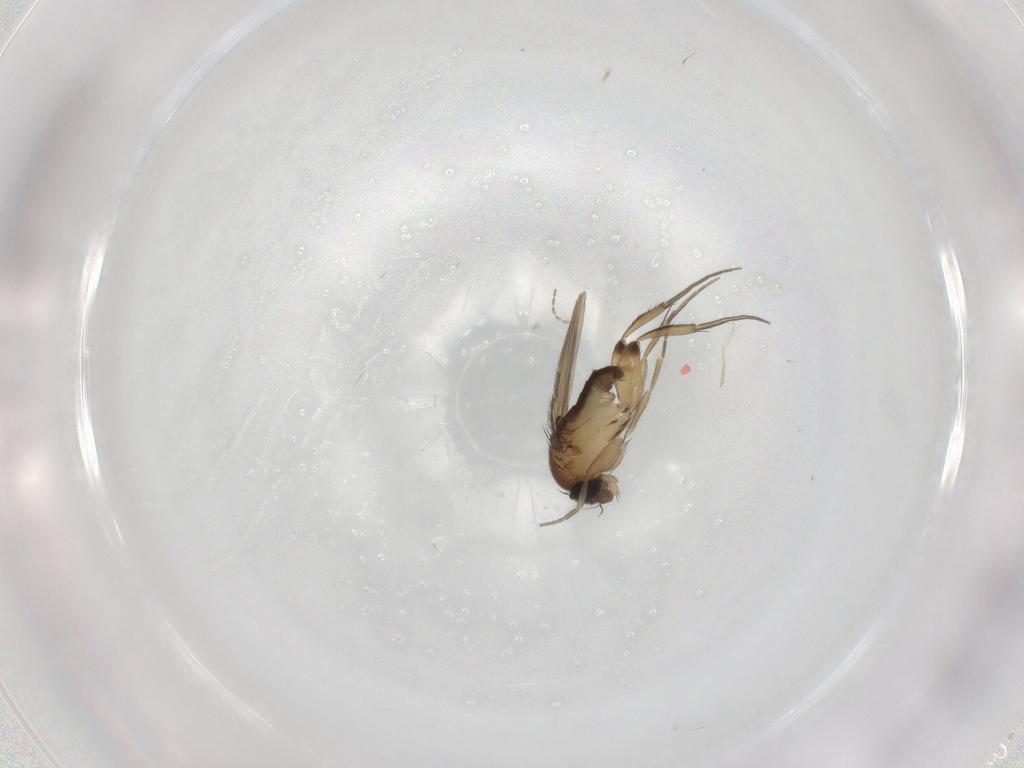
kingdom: Animalia
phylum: Arthropoda
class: Insecta
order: Diptera
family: Phoridae
